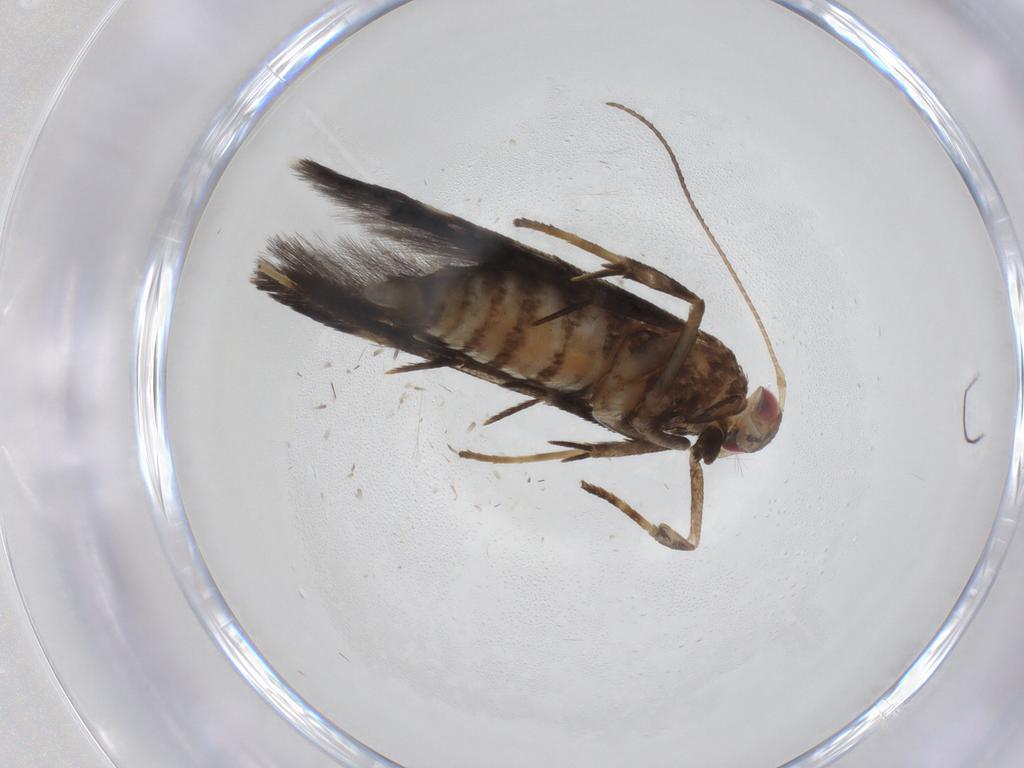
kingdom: Animalia
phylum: Arthropoda
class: Insecta
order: Lepidoptera
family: Gelechiidae
